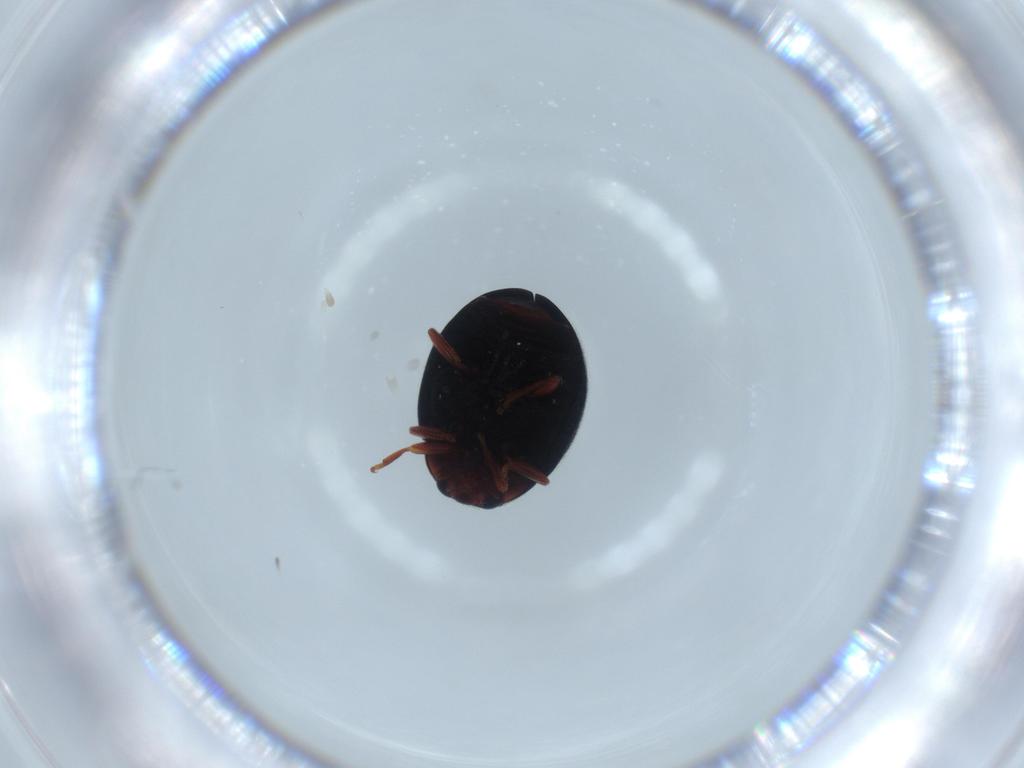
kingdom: Animalia
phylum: Arthropoda
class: Insecta
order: Coleoptera
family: Coccinellidae
